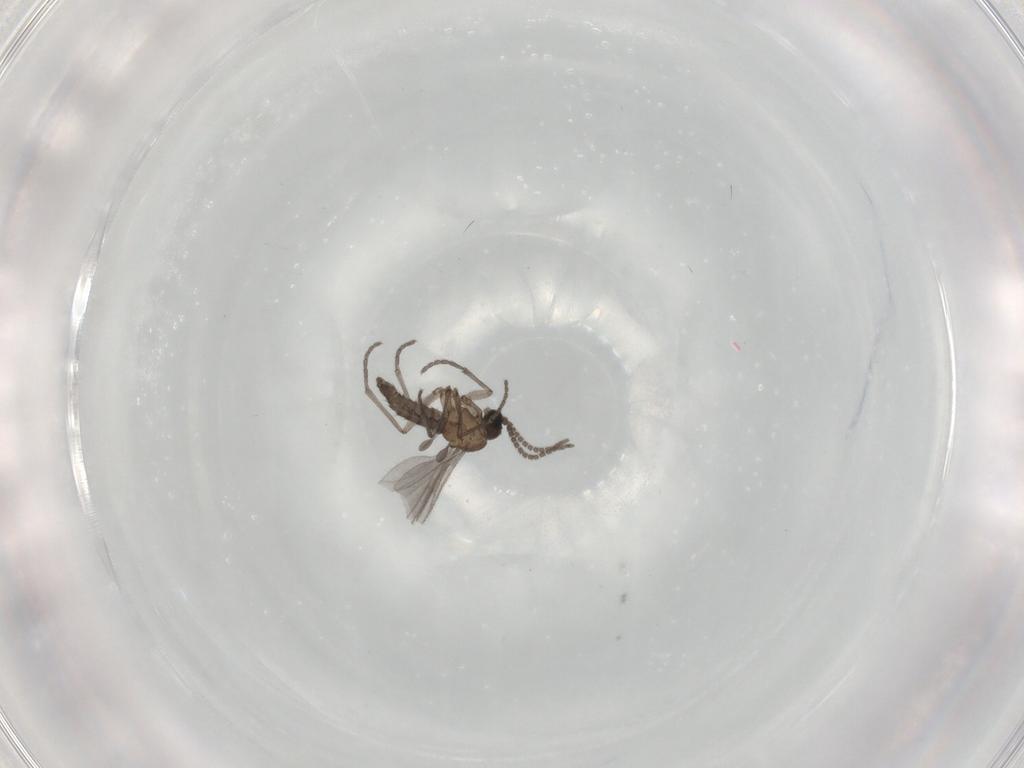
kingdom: Animalia
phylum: Arthropoda
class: Insecta
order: Diptera
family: Sciaridae
